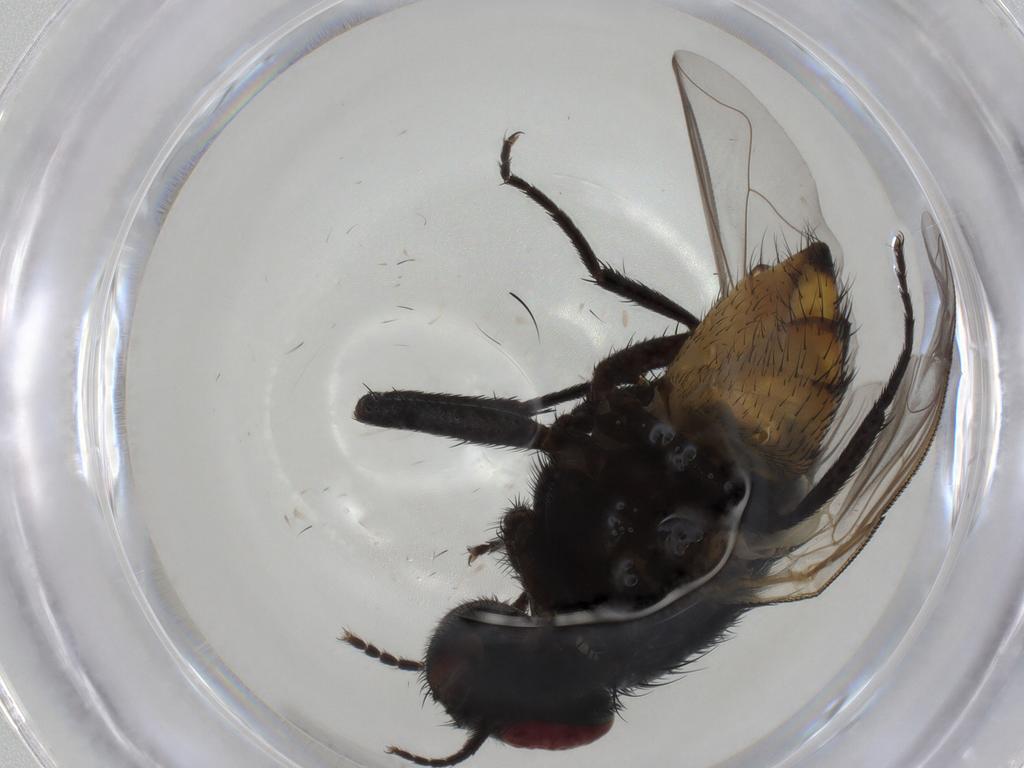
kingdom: Animalia
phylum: Arthropoda
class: Insecta
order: Diptera
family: Muscidae
